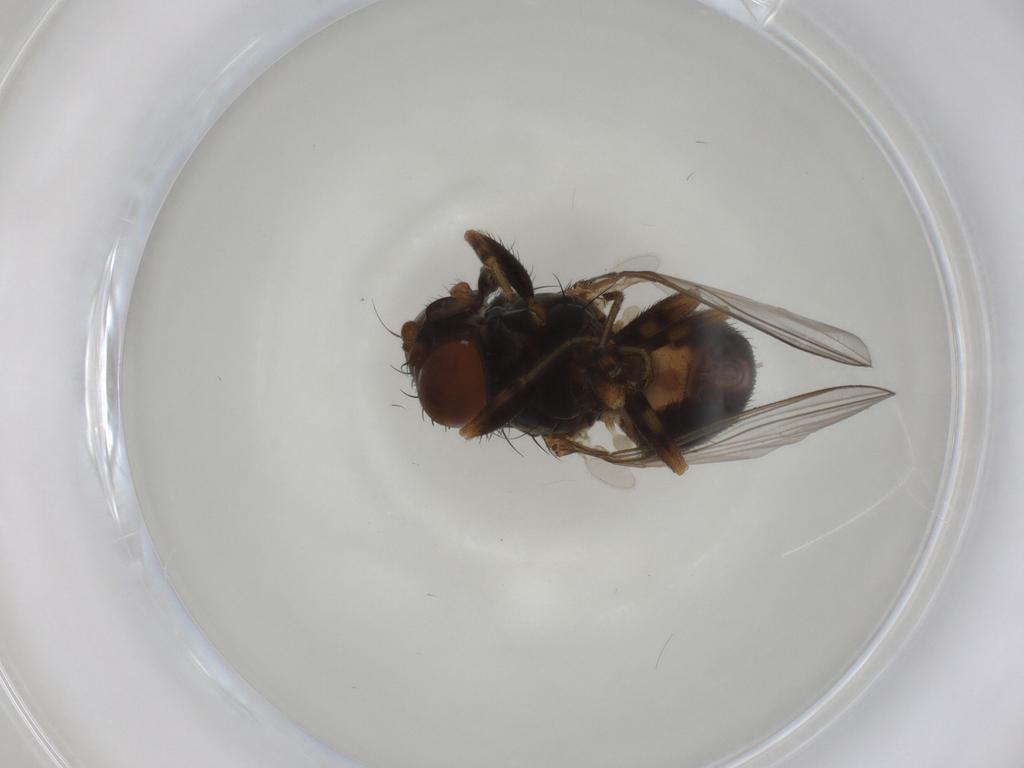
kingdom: Animalia
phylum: Arthropoda
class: Insecta
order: Diptera
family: Drosophilidae
